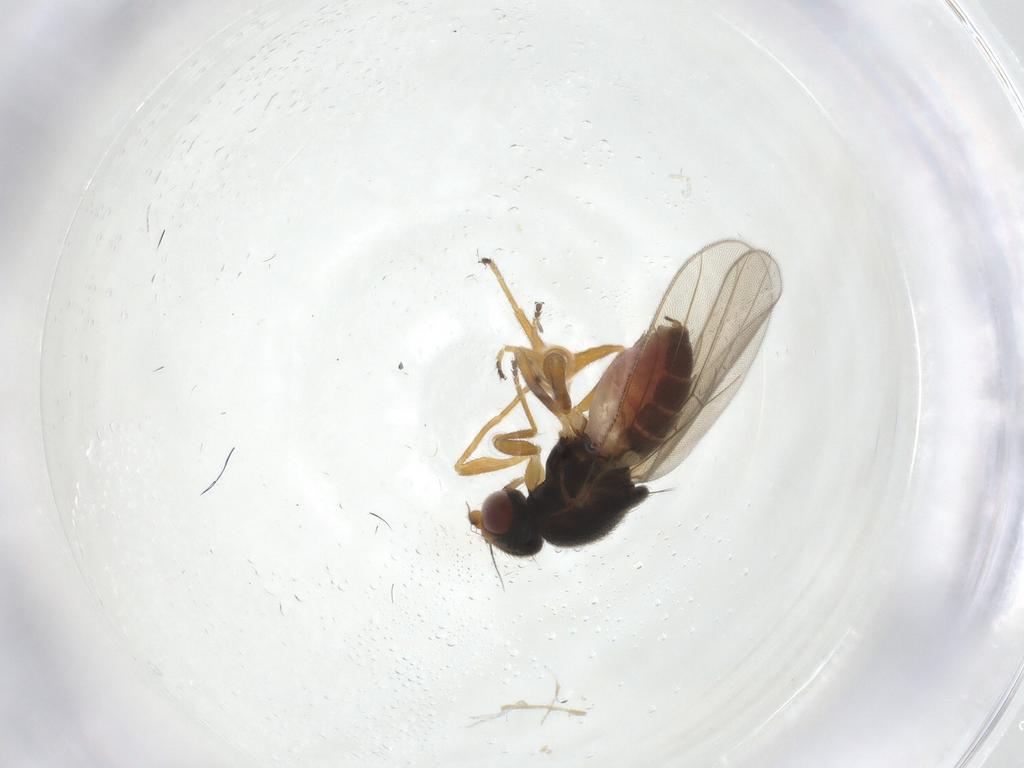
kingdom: Animalia
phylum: Arthropoda
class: Insecta
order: Diptera
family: Chloropidae
